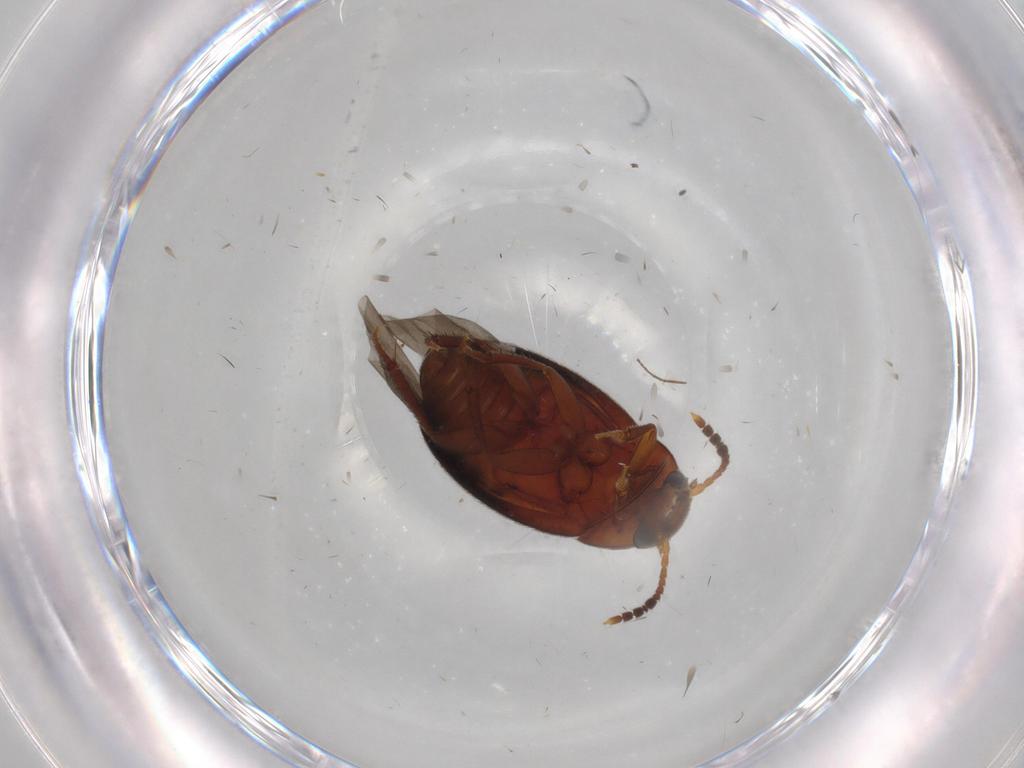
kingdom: Animalia
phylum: Arthropoda
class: Insecta
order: Coleoptera
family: Leiodidae
